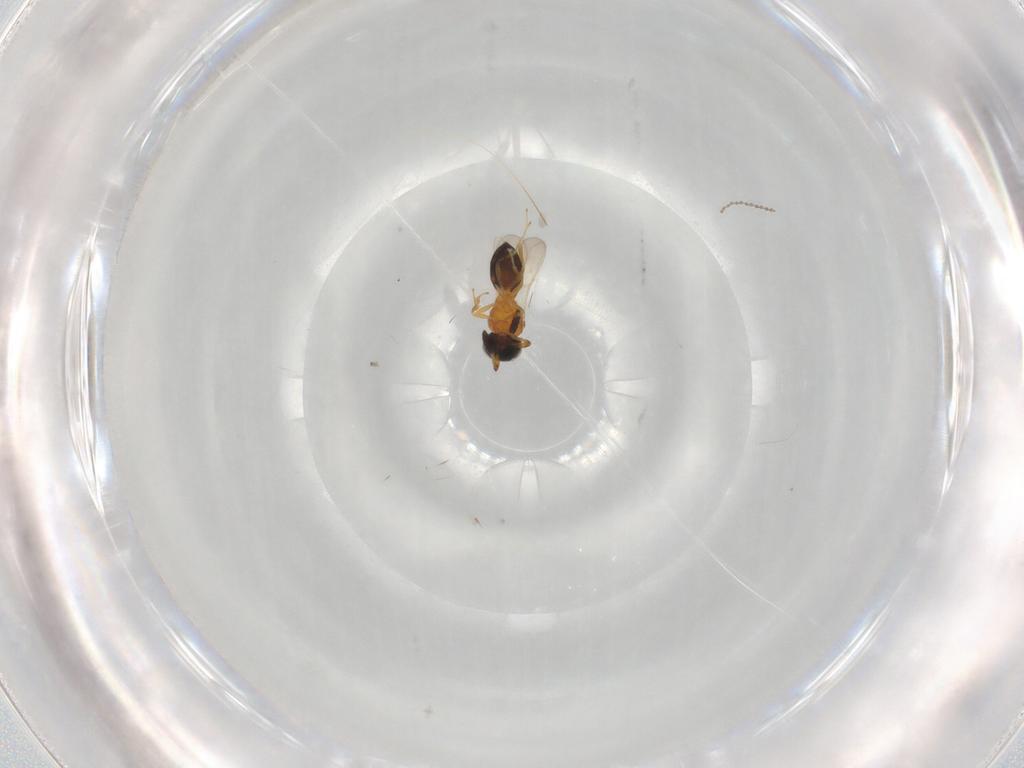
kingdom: Animalia
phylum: Arthropoda
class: Insecta
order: Hymenoptera
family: Scelionidae
